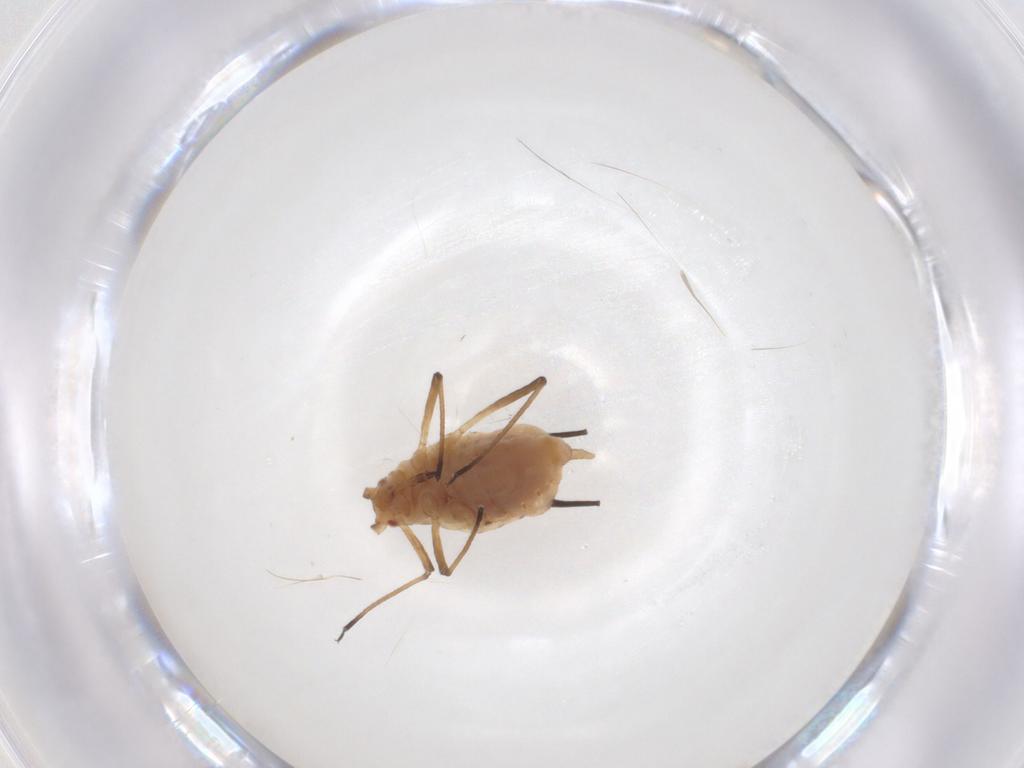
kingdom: Animalia
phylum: Arthropoda
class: Insecta
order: Hemiptera
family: Aphididae
